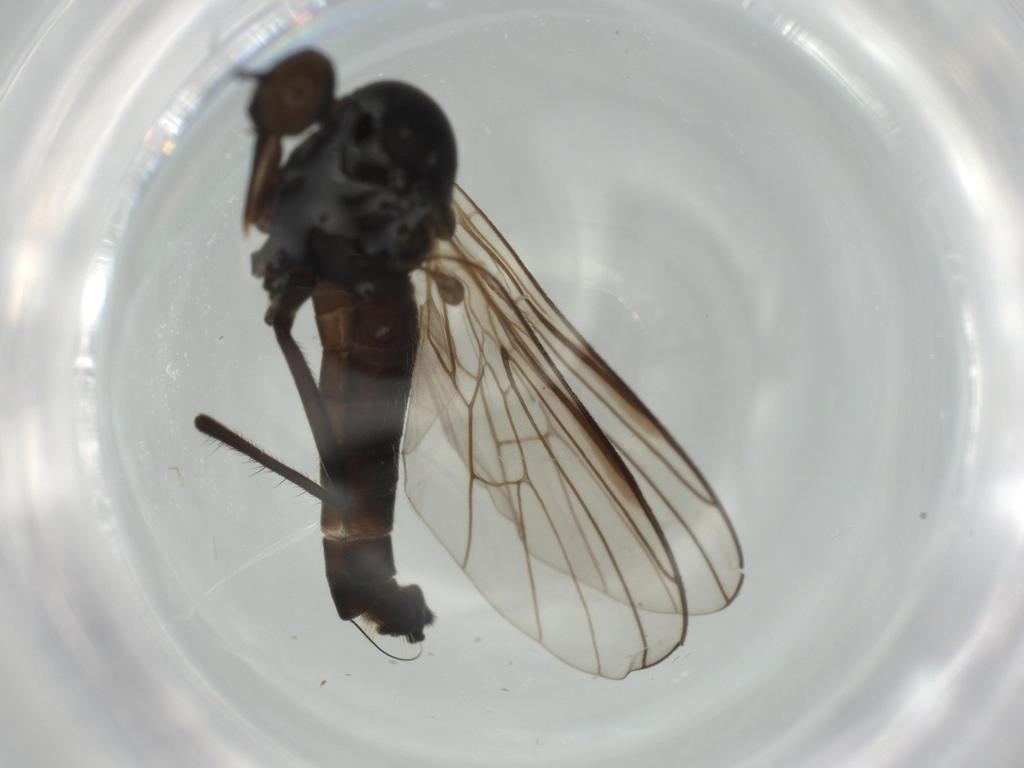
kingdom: Animalia
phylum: Arthropoda
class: Insecta
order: Diptera
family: Empididae
